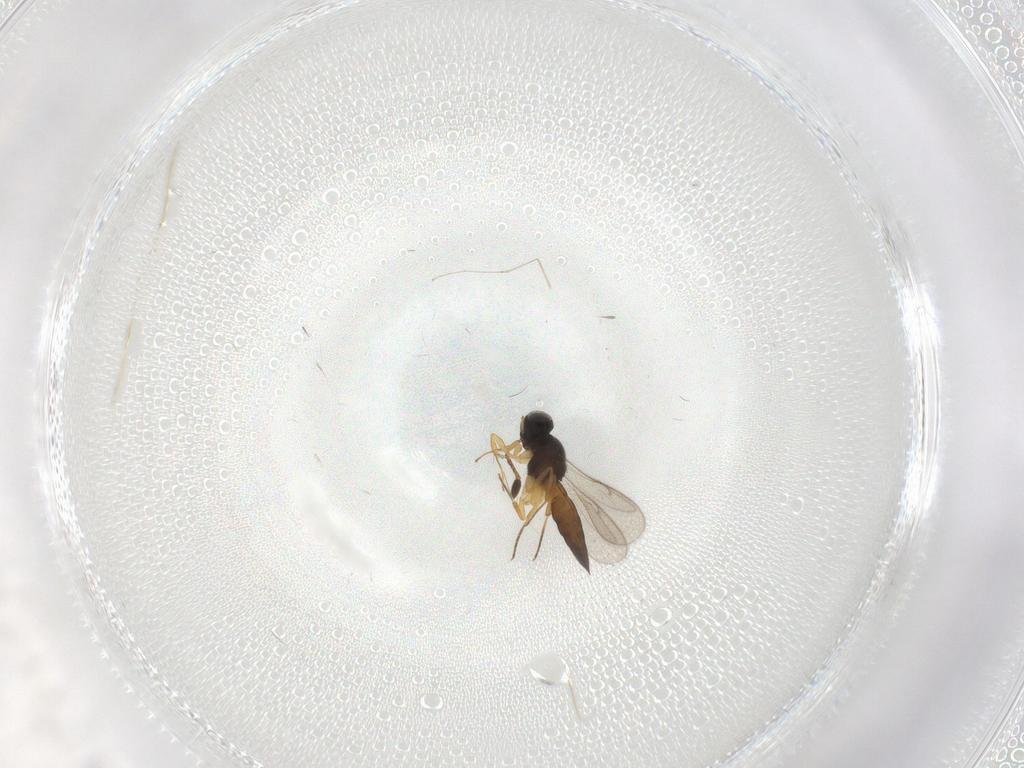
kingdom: Animalia
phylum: Arthropoda
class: Insecta
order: Hymenoptera
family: Scelionidae
